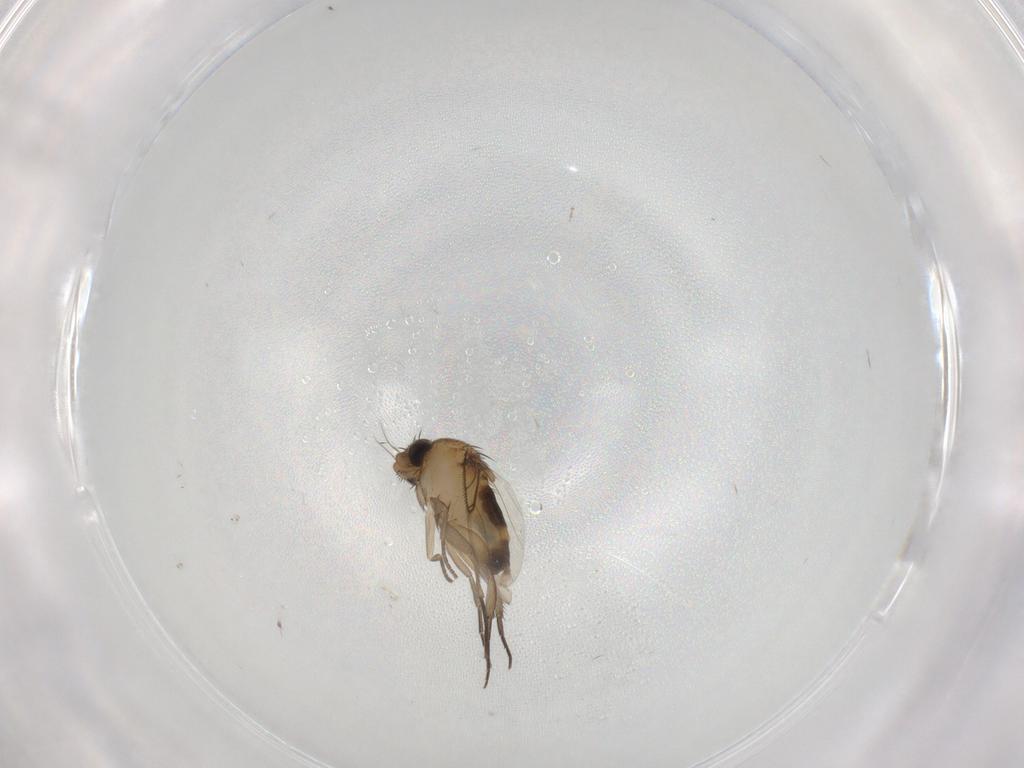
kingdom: Animalia
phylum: Arthropoda
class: Insecta
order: Diptera
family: Phoridae
